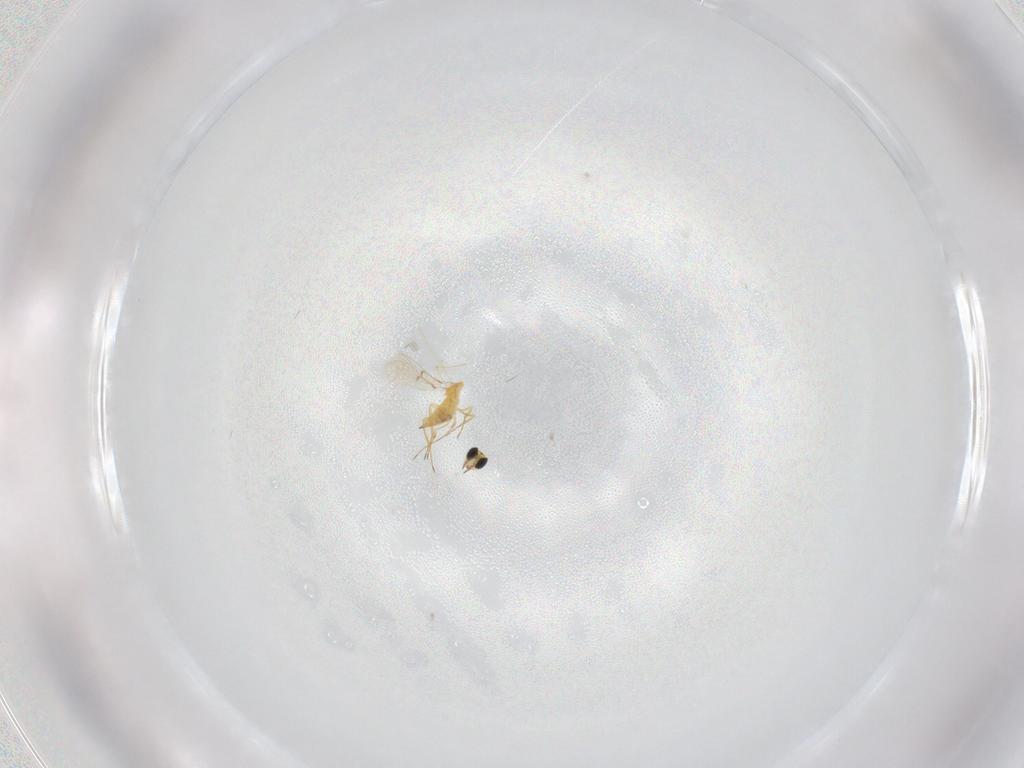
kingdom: Animalia
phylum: Arthropoda
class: Insecta
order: Hymenoptera
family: Trichogrammatidae
